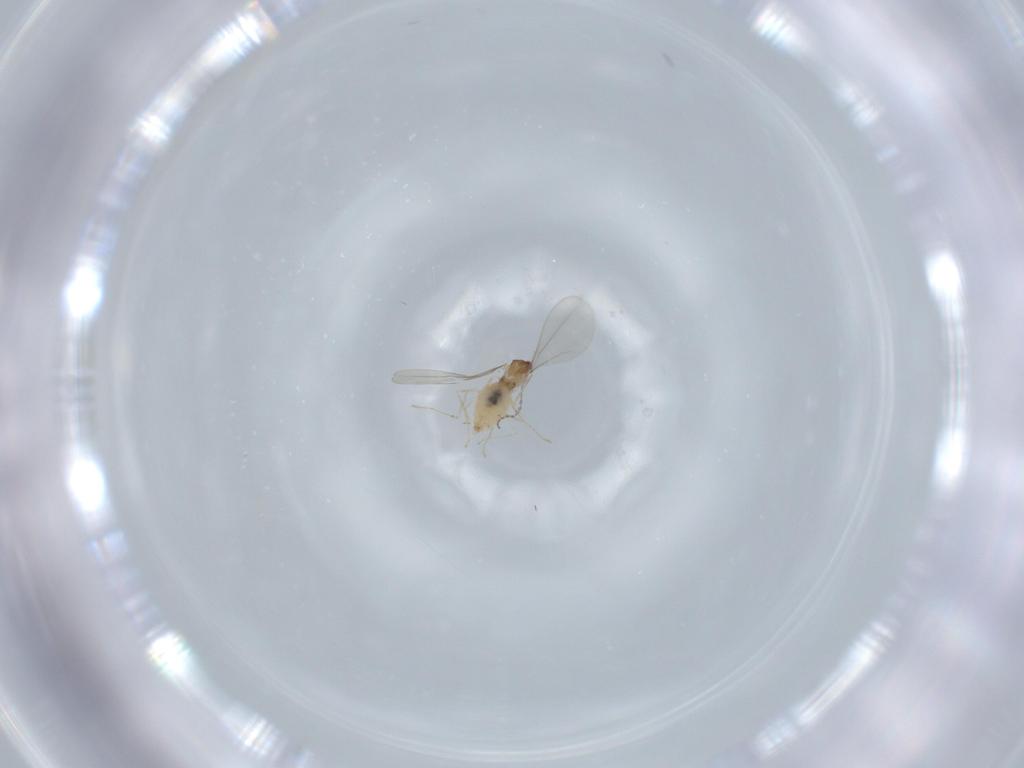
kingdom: Animalia
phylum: Arthropoda
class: Insecta
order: Diptera
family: Cecidomyiidae
